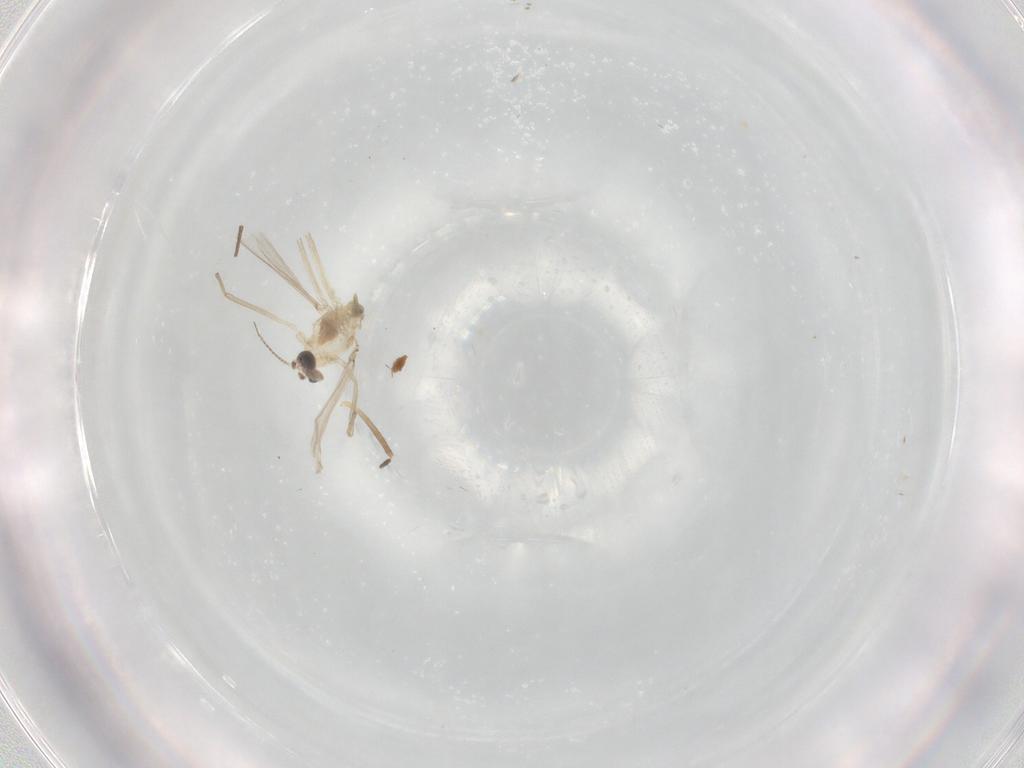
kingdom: Animalia
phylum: Arthropoda
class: Insecta
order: Diptera
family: Chironomidae
